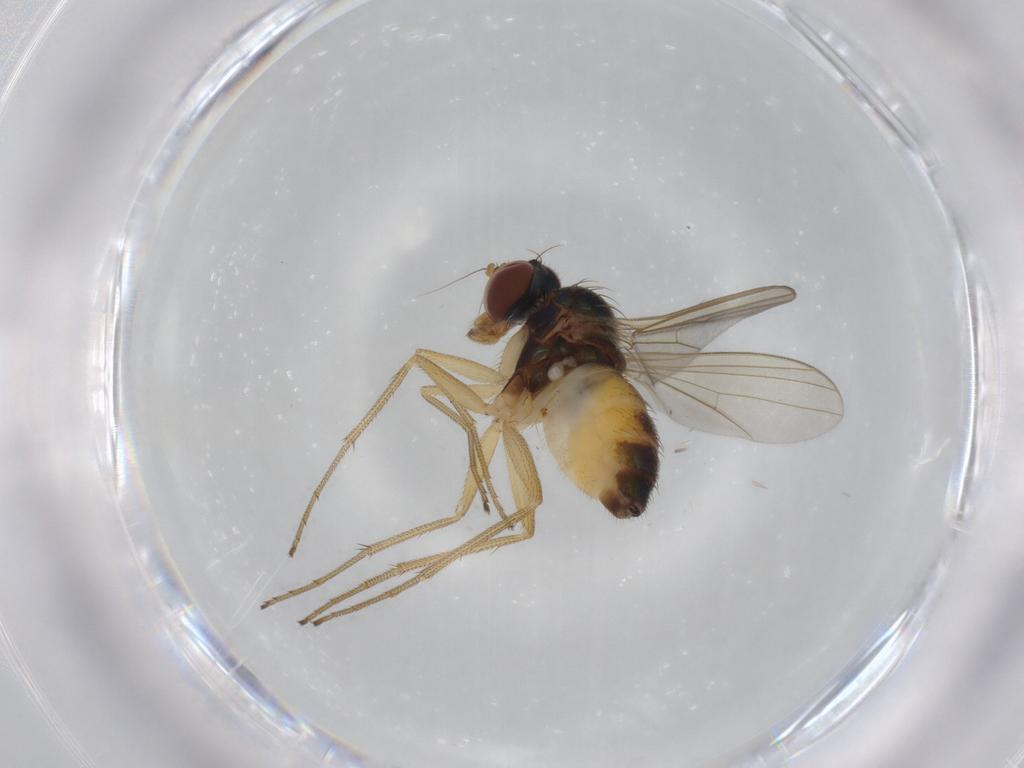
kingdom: Animalia
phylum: Arthropoda
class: Insecta
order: Diptera
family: Dolichopodidae
